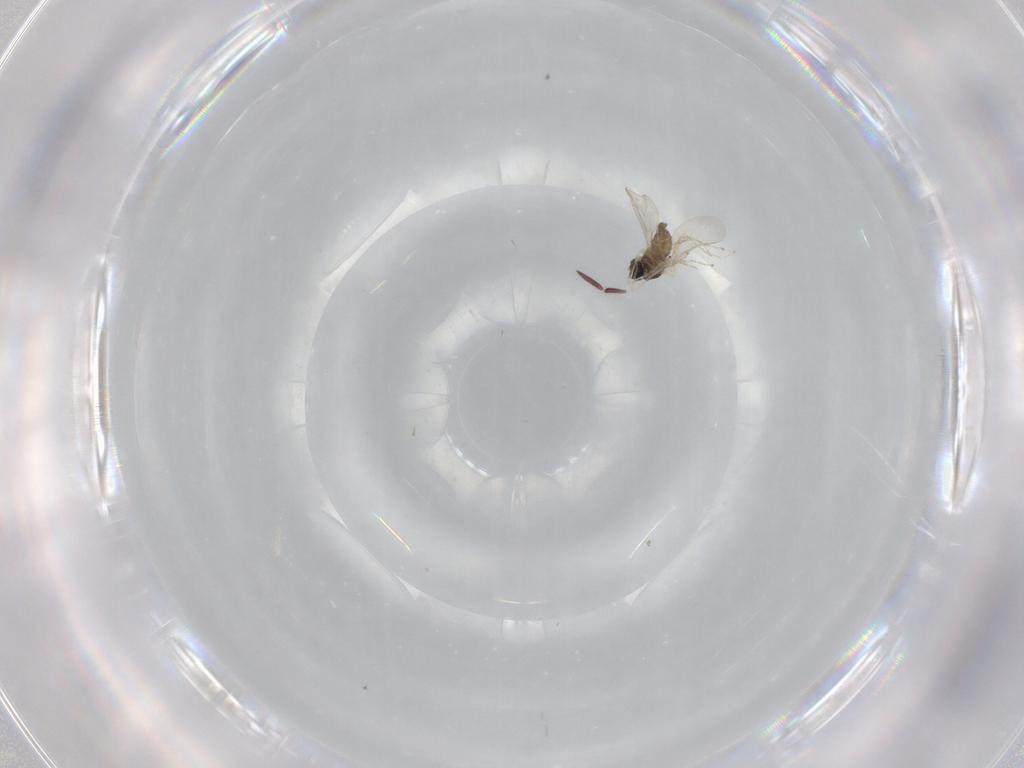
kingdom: Animalia
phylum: Arthropoda
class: Insecta
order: Diptera
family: Cecidomyiidae
